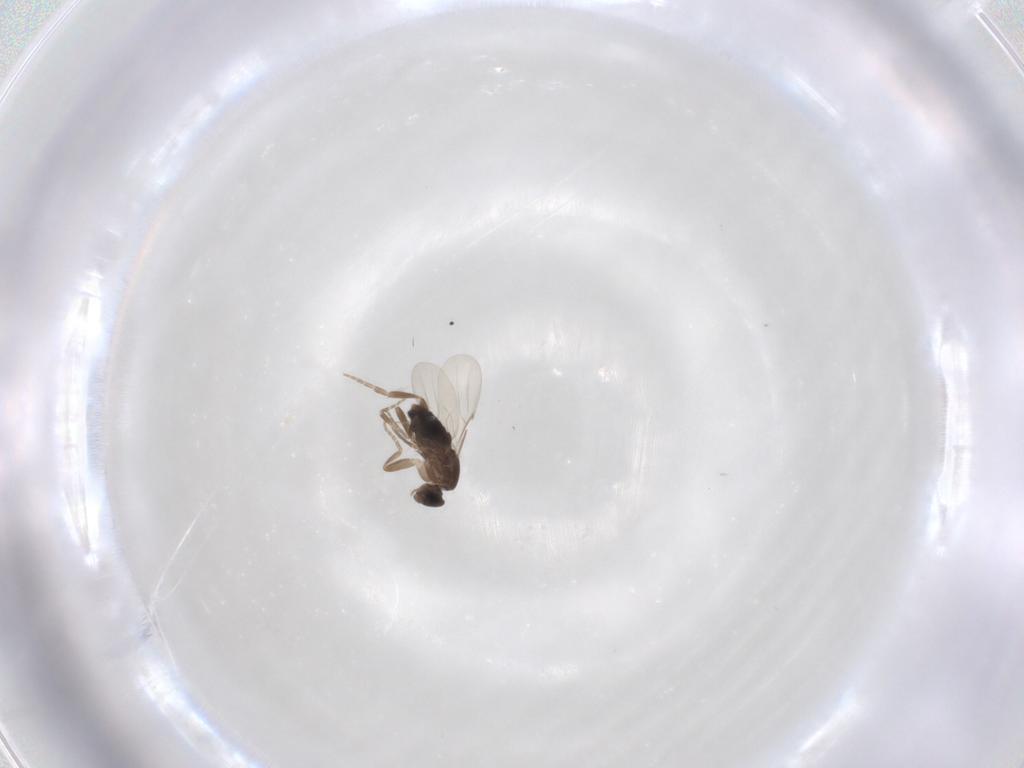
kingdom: Animalia
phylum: Arthropoda
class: Insecta
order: Diptera
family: Phoridae
